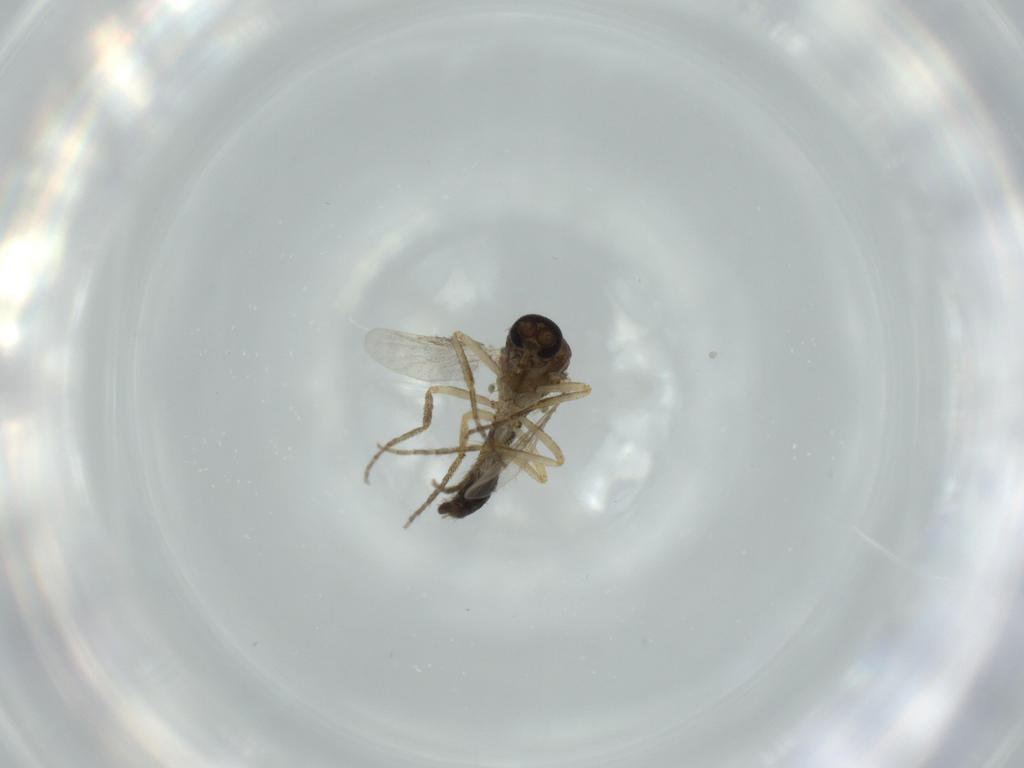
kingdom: Animalia
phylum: Arthropoda
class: Insecta
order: Diptera
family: Ceratopogonidae
